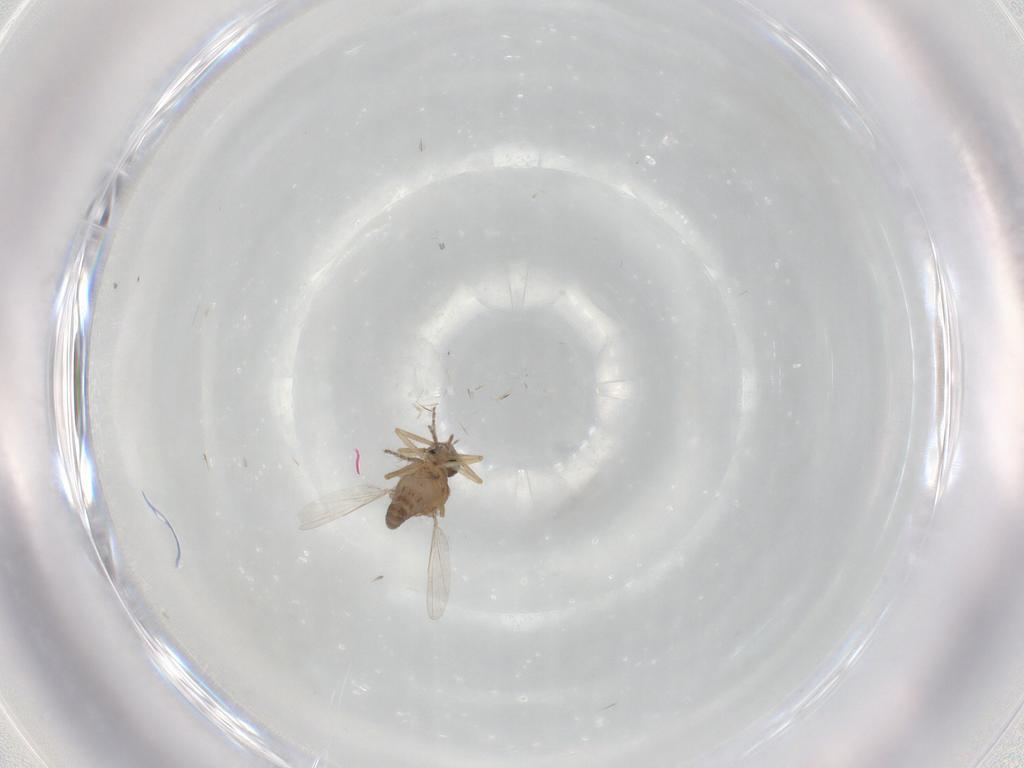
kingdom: Animalia
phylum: Arthropoda
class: Insecta
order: Diptera
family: Ceratopogonidae
